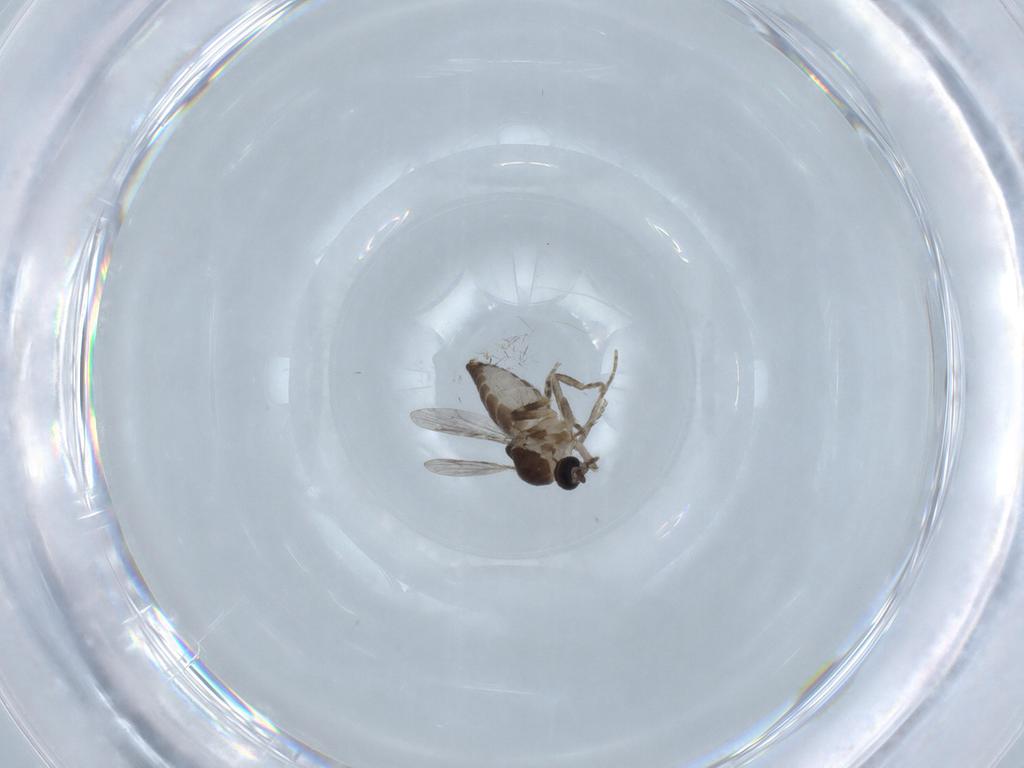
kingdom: Animalia
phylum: Arthropoda
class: Insecta
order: Diptera
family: Ceratopogonidae
